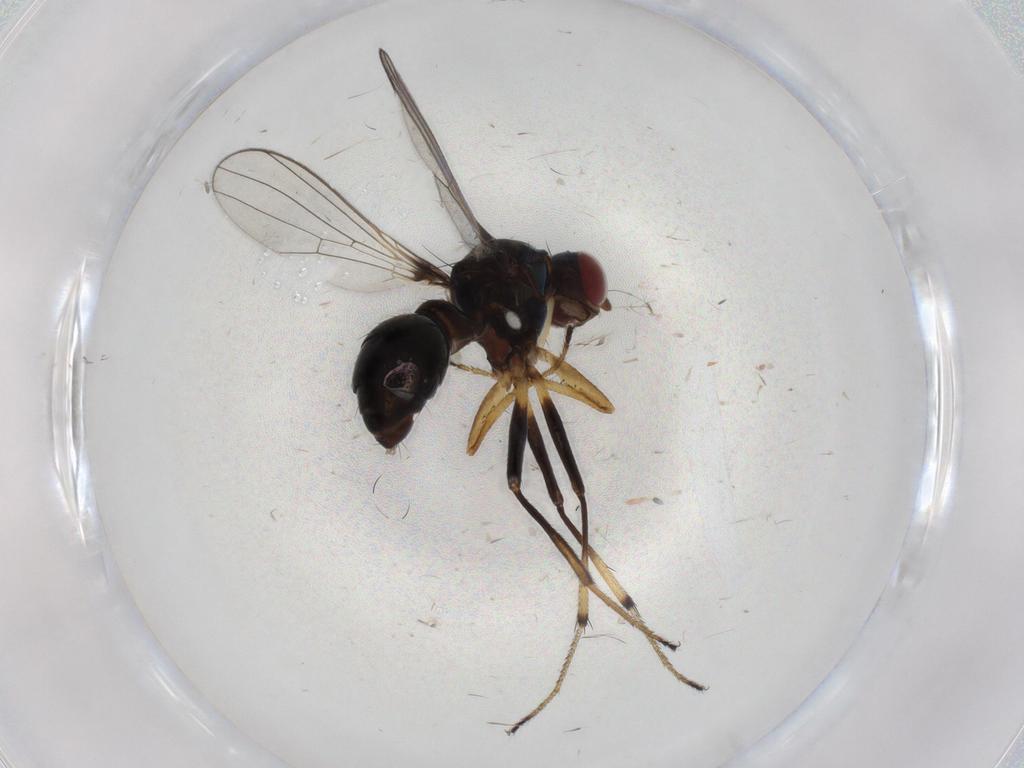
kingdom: Animalia
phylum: Arthropoda
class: Insecta
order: Diptera
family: Sepsidae
